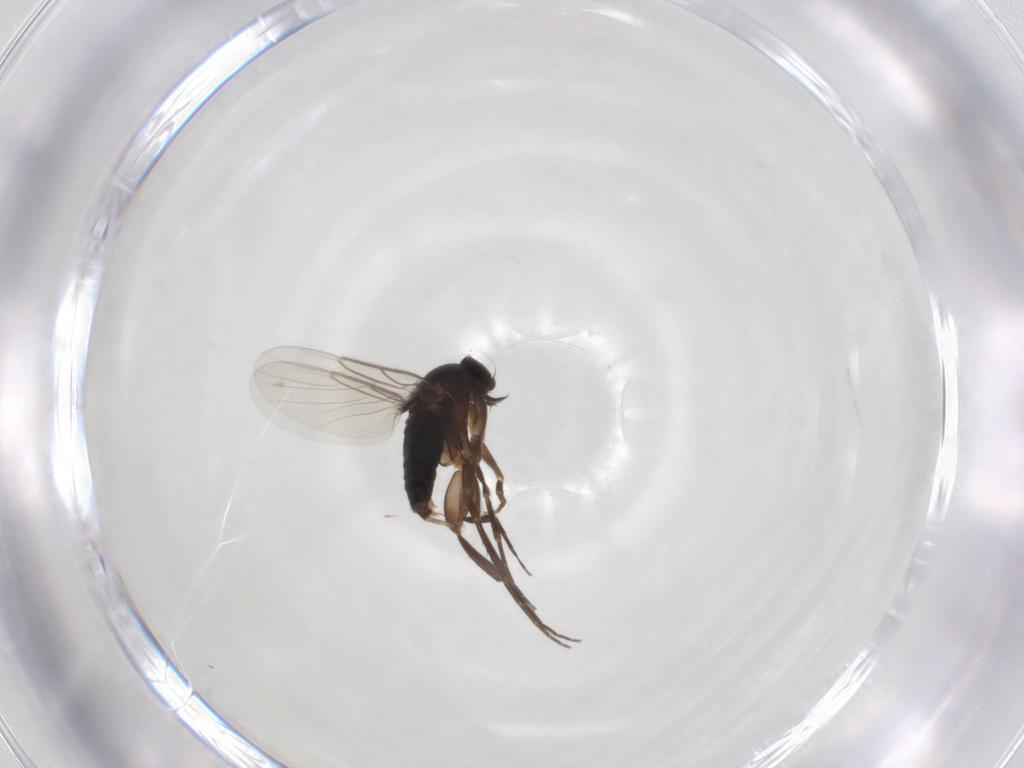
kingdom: Animalia
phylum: Arthropoda
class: Insecta
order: Diptera
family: Phoridae
